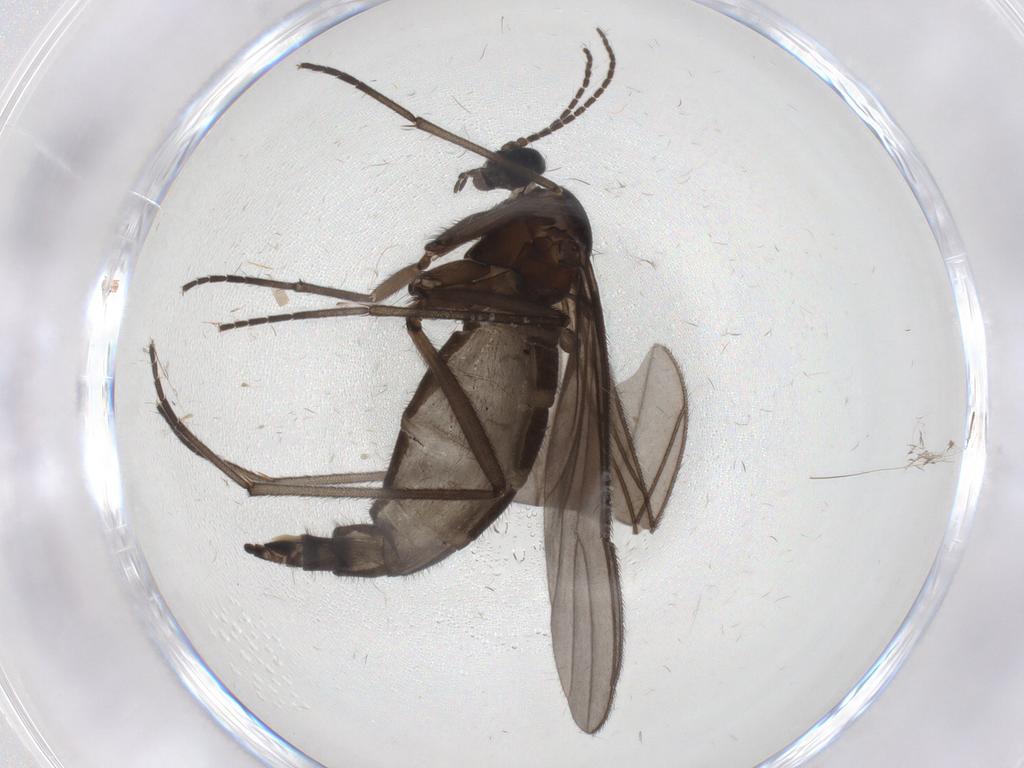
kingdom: Animalia
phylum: Arthropoda
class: Insecta
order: Diptera
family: Sciaridae
